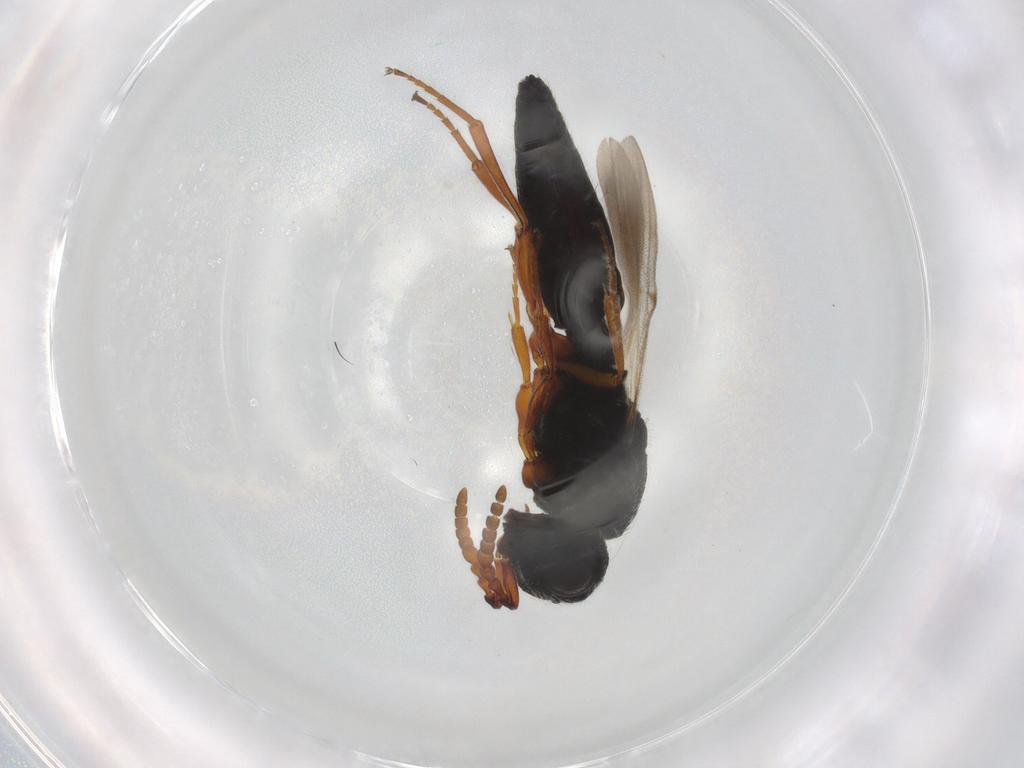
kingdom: Animalia
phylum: Arthropoda
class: Insecta
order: Hymenoptera
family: Scelionidae
